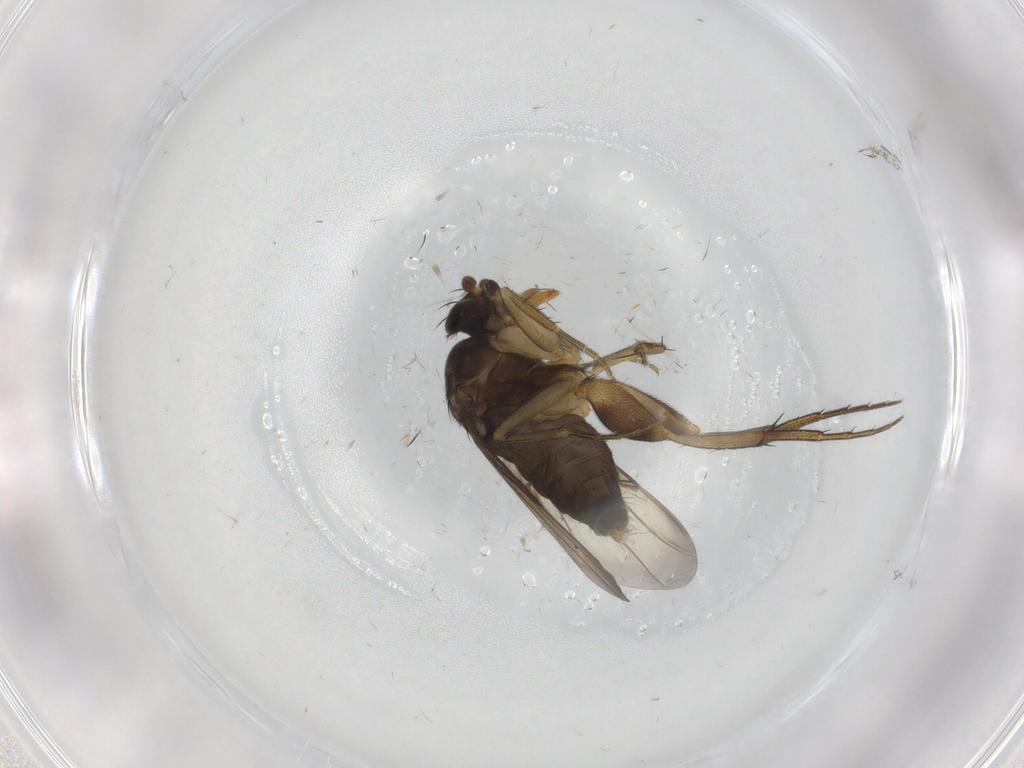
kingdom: Animalia
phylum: Arthropoda
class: Insecta
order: Diptera
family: Phoridae
